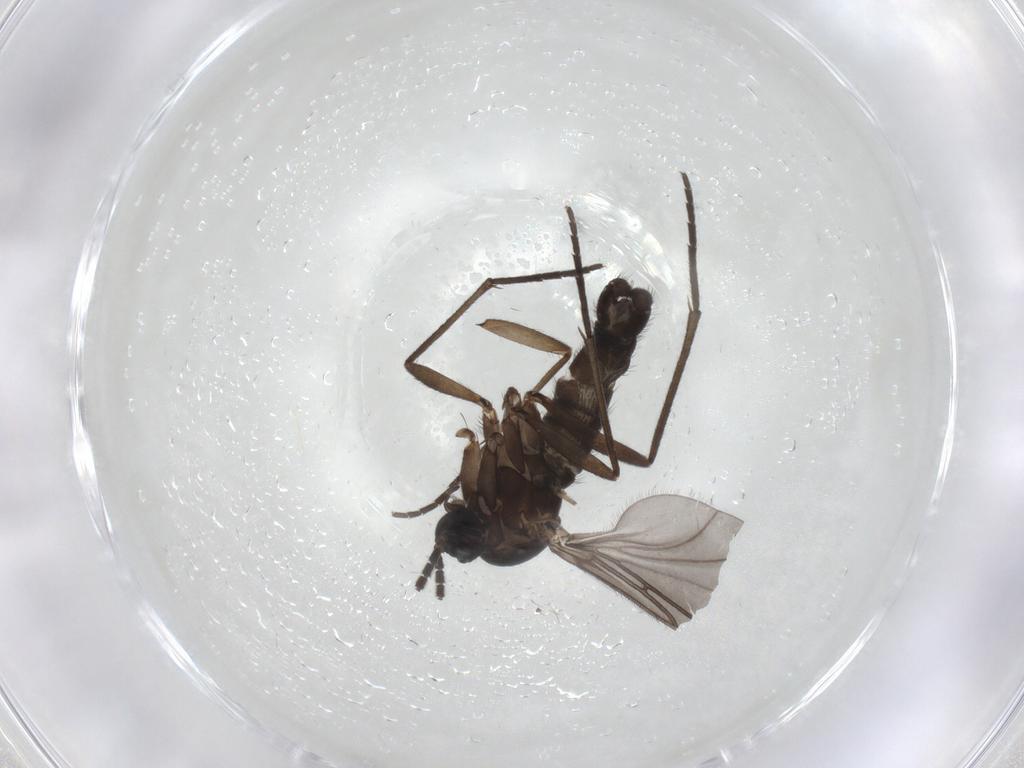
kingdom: Animalia
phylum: Arthropoda
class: Insecta
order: Diptera
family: Sciaridae
